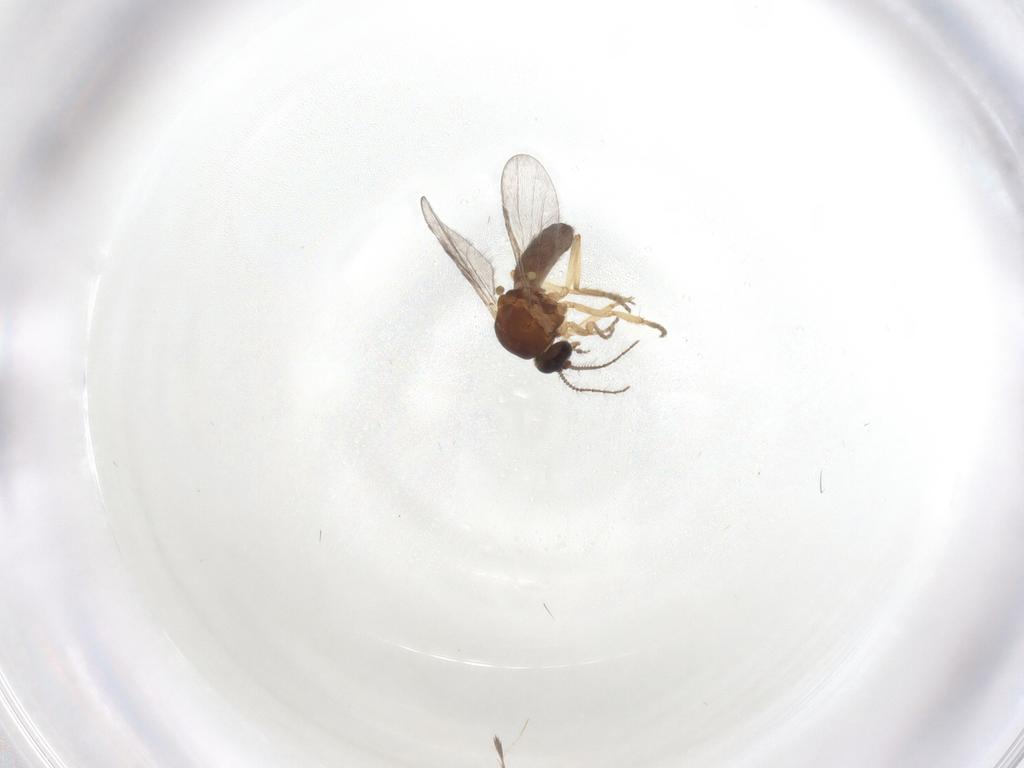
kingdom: Animalia
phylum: Arthropoda
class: Insecta
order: Diptera
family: Ceratopogonidae
